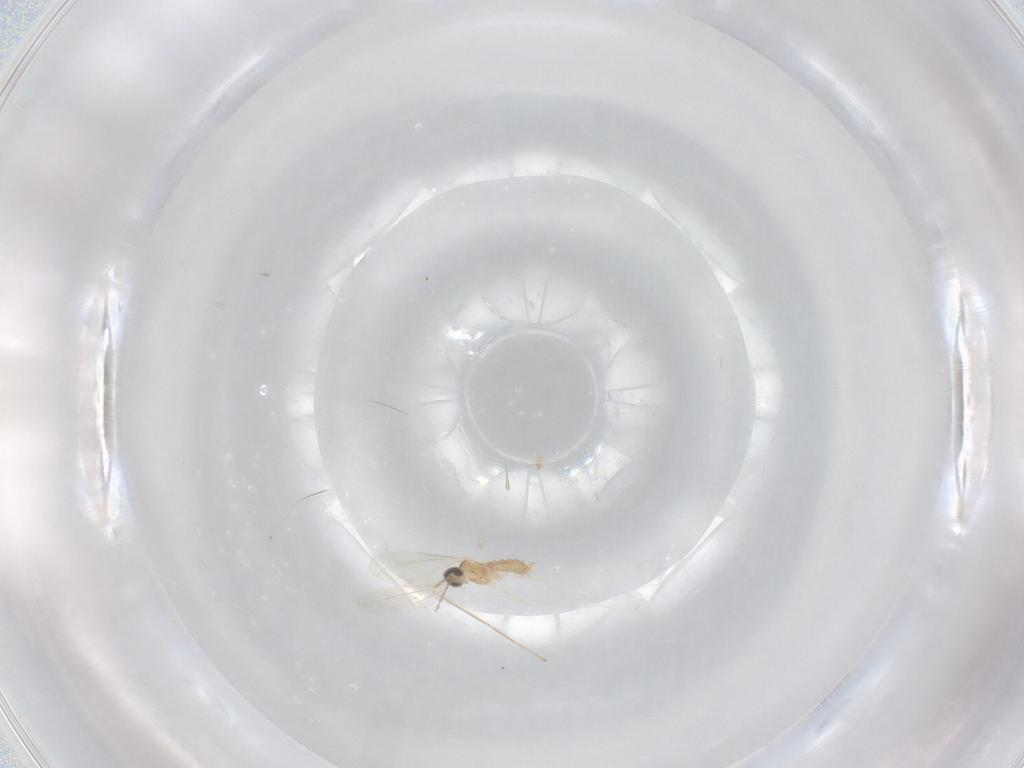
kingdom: Animalia
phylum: Arthropoda
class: Insecta
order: Diptera
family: Cecidomyiidae
